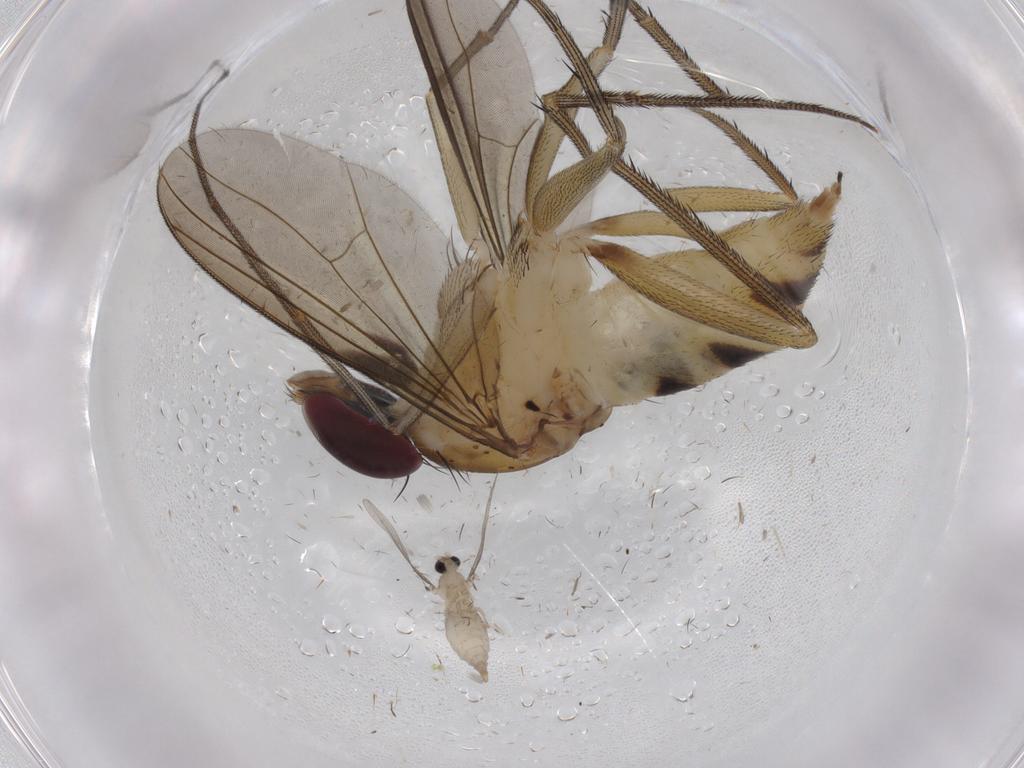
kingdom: Animalia
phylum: Arthropoda
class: Insecta
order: Diptera
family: Dolichopodidae
